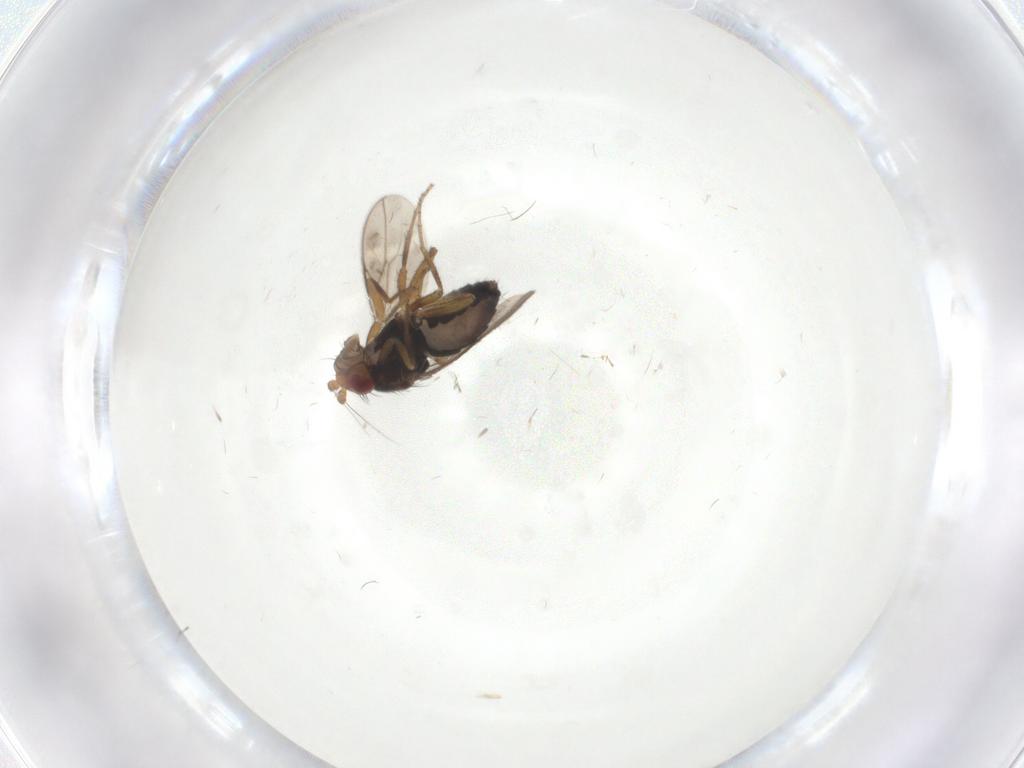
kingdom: Animalia
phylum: Arthropoda
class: Insecta
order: Diptera
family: Sphaeroceridae
